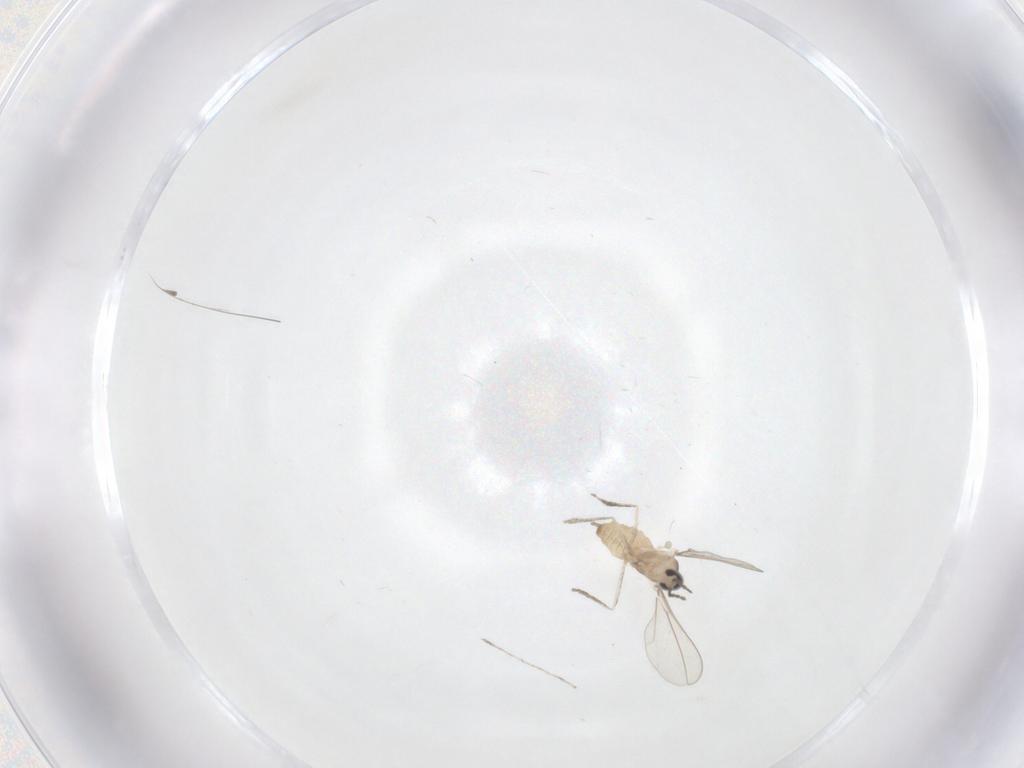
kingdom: Animalia
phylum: Arthropoda
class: Insecta
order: Diptera
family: Cecidomyiidae
